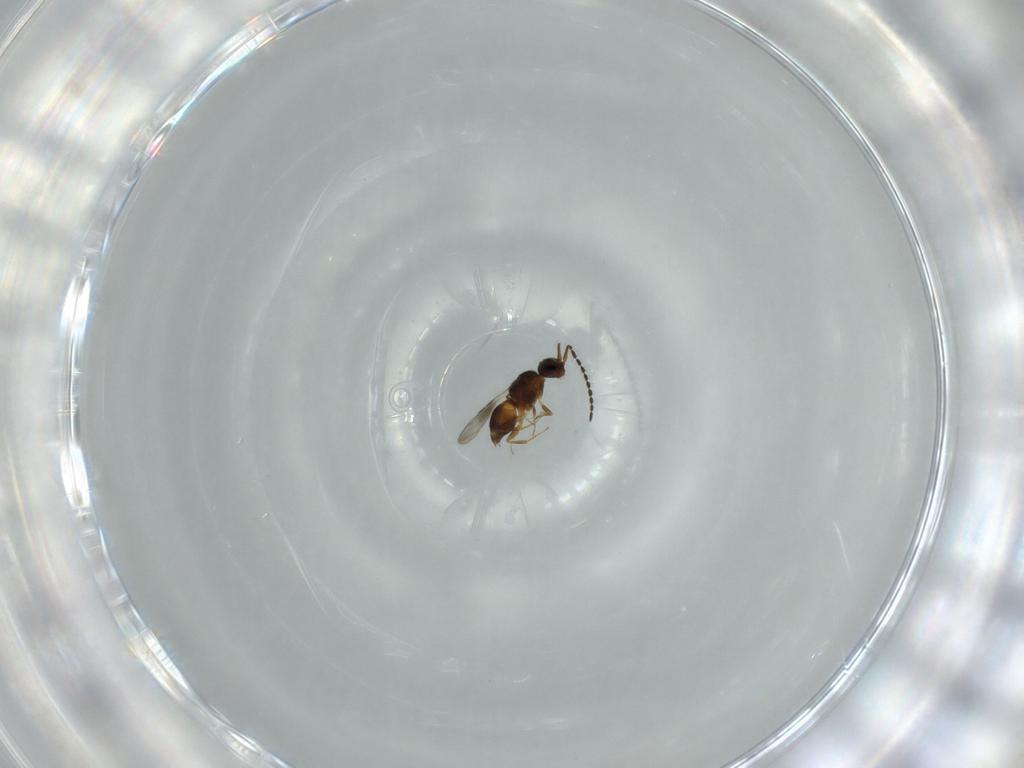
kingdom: Animalia
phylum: Arthropoda
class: Insecta
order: Hymenoptera
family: Ceraphronidae
